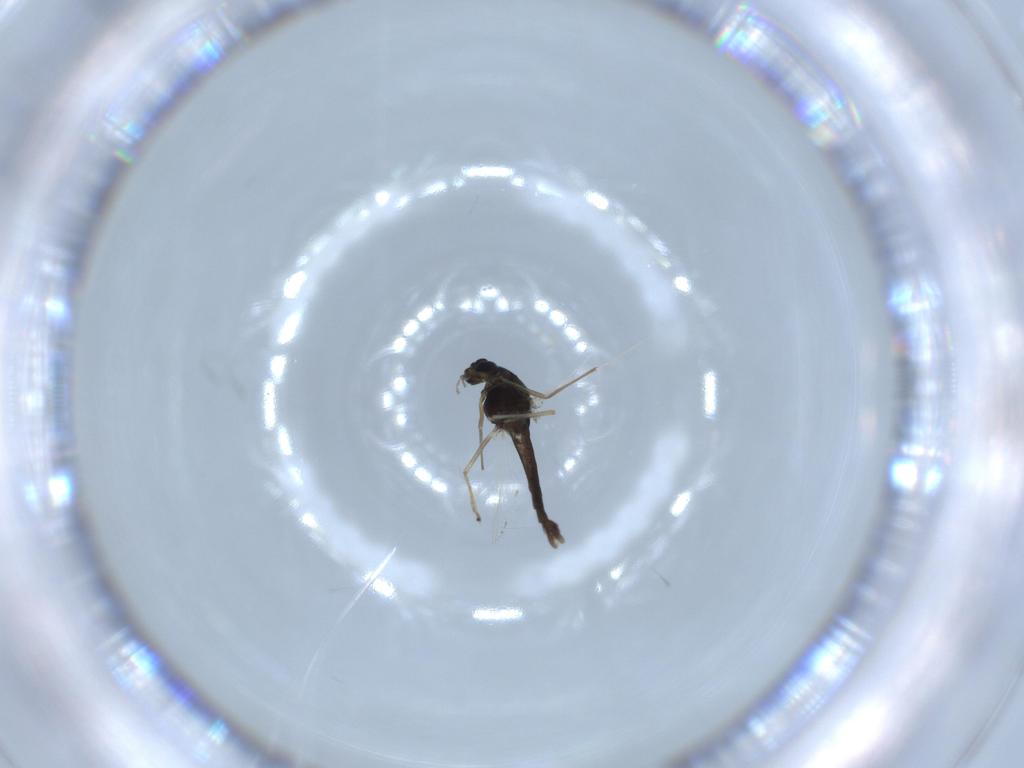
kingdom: Animalia
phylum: Arthropoda
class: Insecta
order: Diptera
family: Chironomidae
